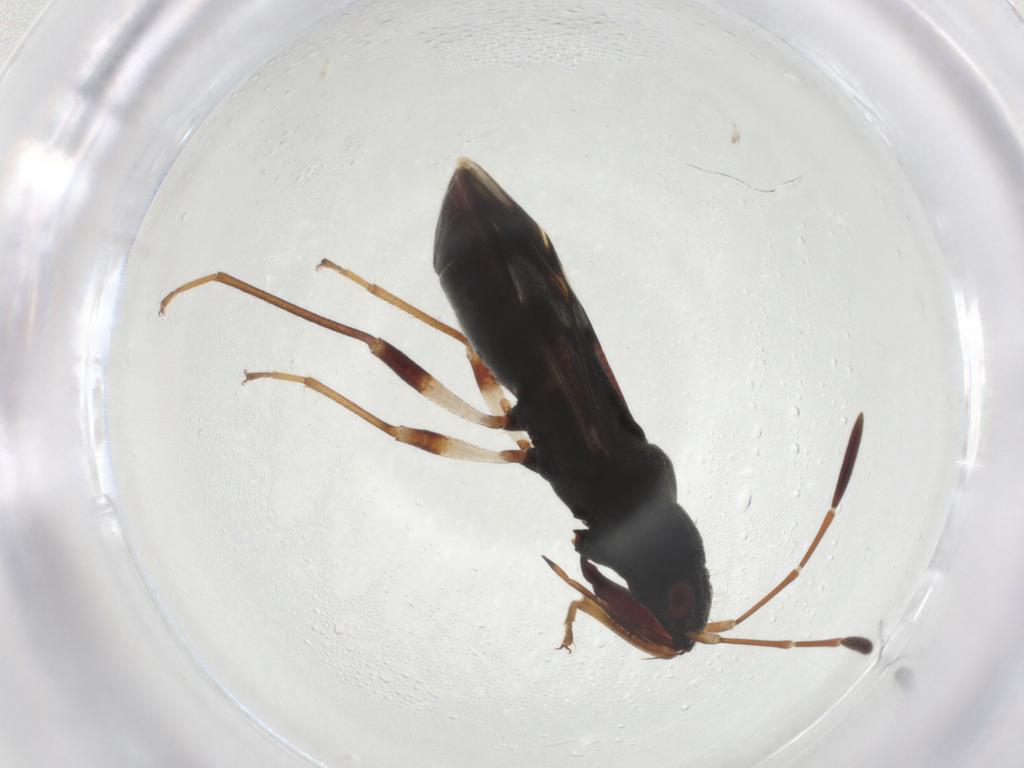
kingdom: Animalia
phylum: Arthropoda
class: Insecta
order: Hemiptera
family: Rhyparochromidae
